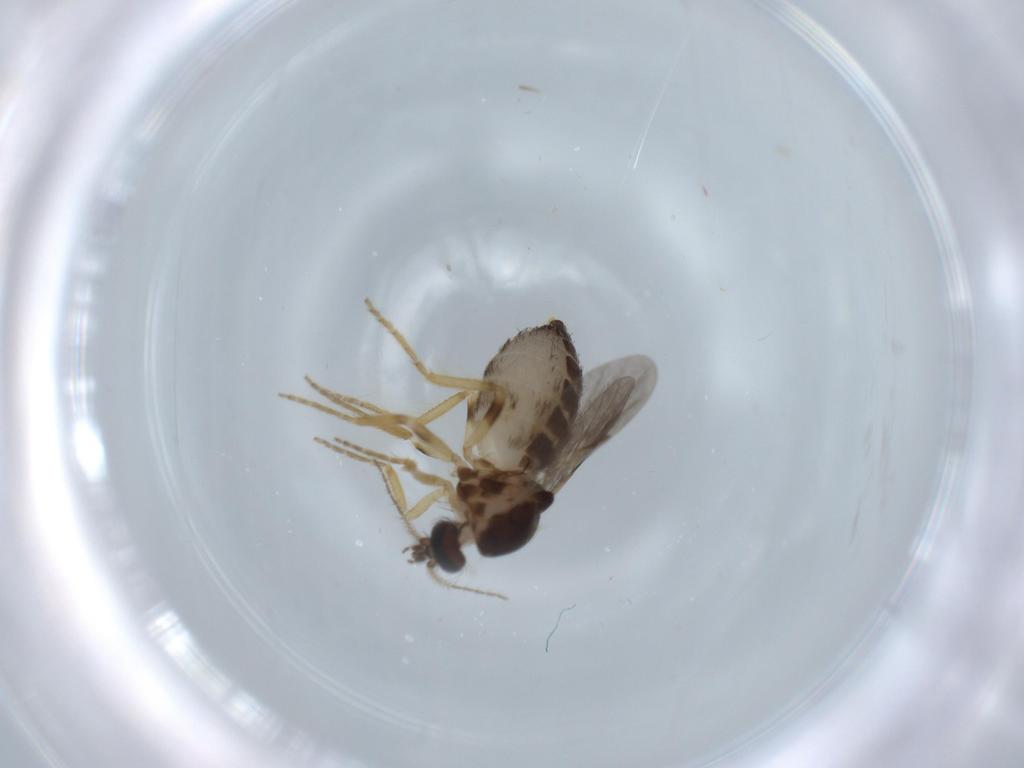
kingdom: Animalia
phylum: Arthropoda
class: Insecta
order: Diptera
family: Ceratopogonidae
